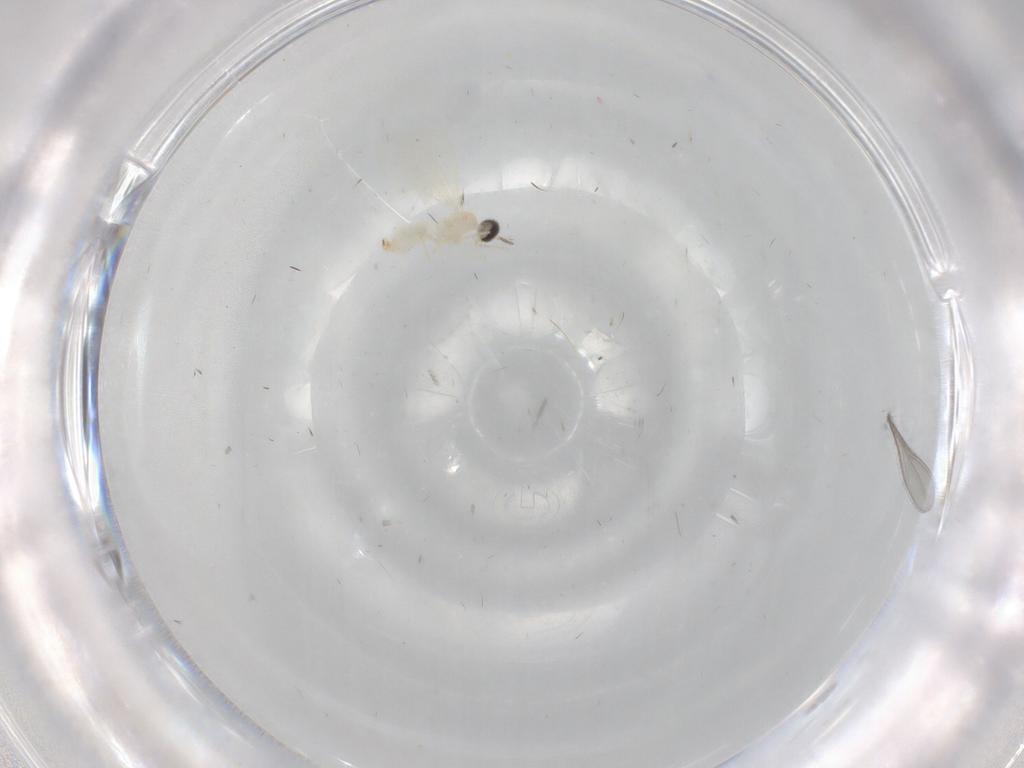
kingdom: Animalia
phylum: Arthropoda
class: Insecta
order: Diptera
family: Cecidomyiidae
